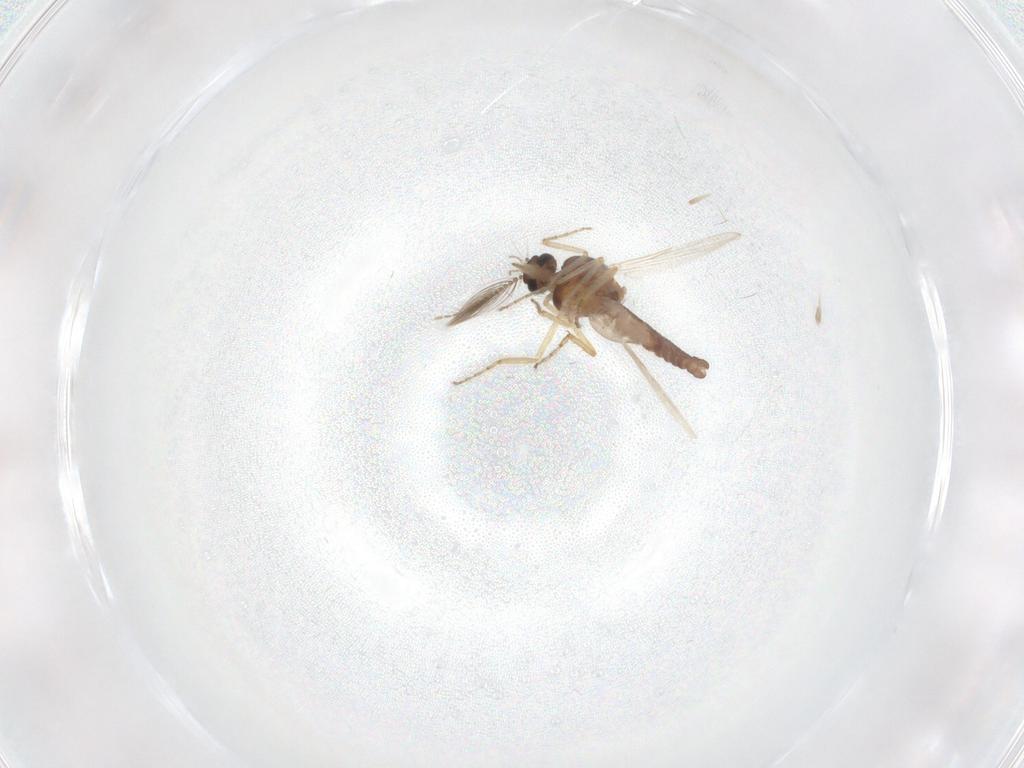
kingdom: Animalia
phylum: Arthropoda
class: Insecta
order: Diptera
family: Ceratopogonidae
